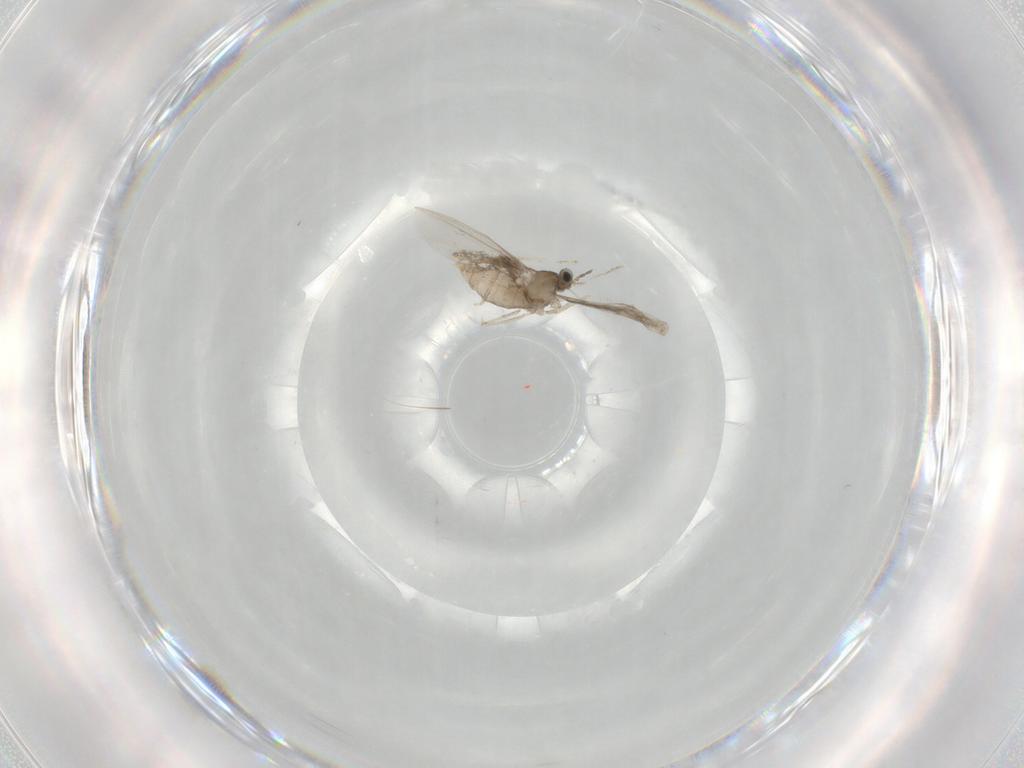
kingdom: Animalia
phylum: Arthropoda
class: Insecta
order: Diptera
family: Cecidomyiidae
